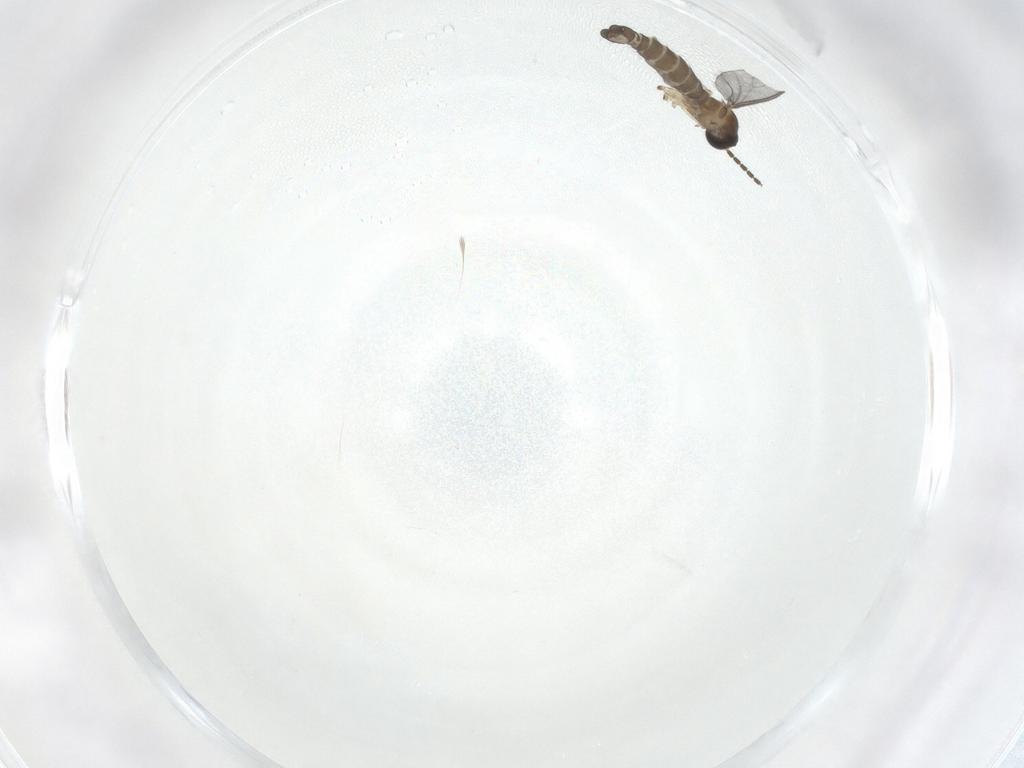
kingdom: Animalia
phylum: Arthropoda
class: Insecta
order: Diptera
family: Sciaridae
